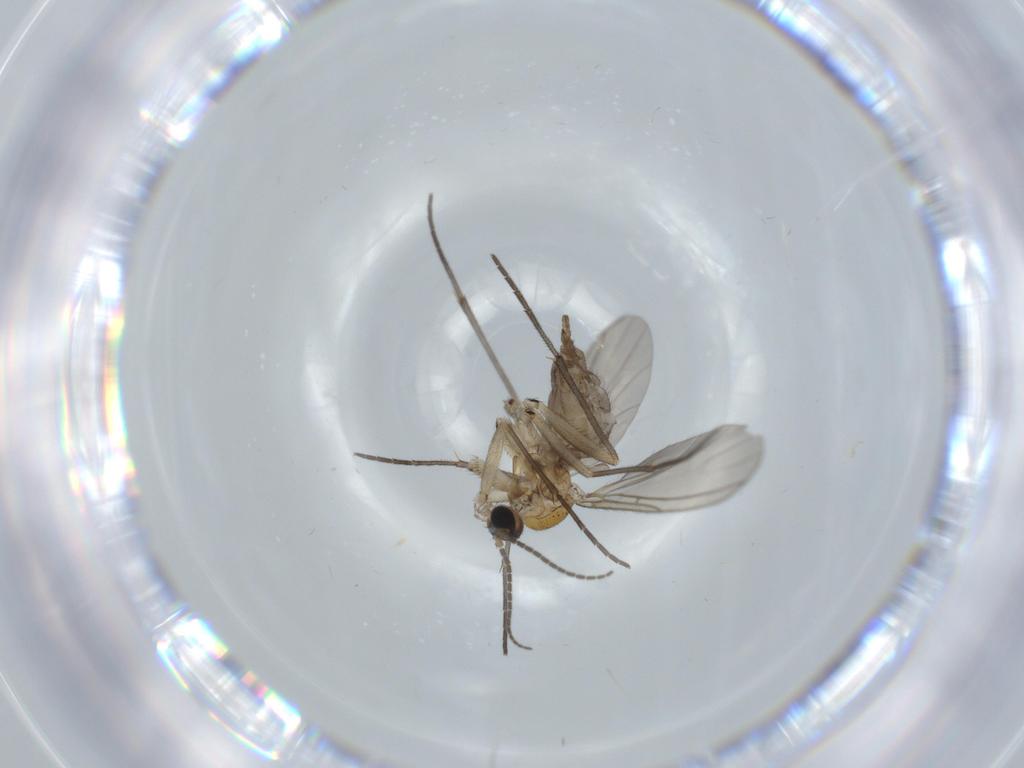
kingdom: Animalia
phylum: Arthropoda
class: Insecta
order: Diptera
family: Sciaridae
